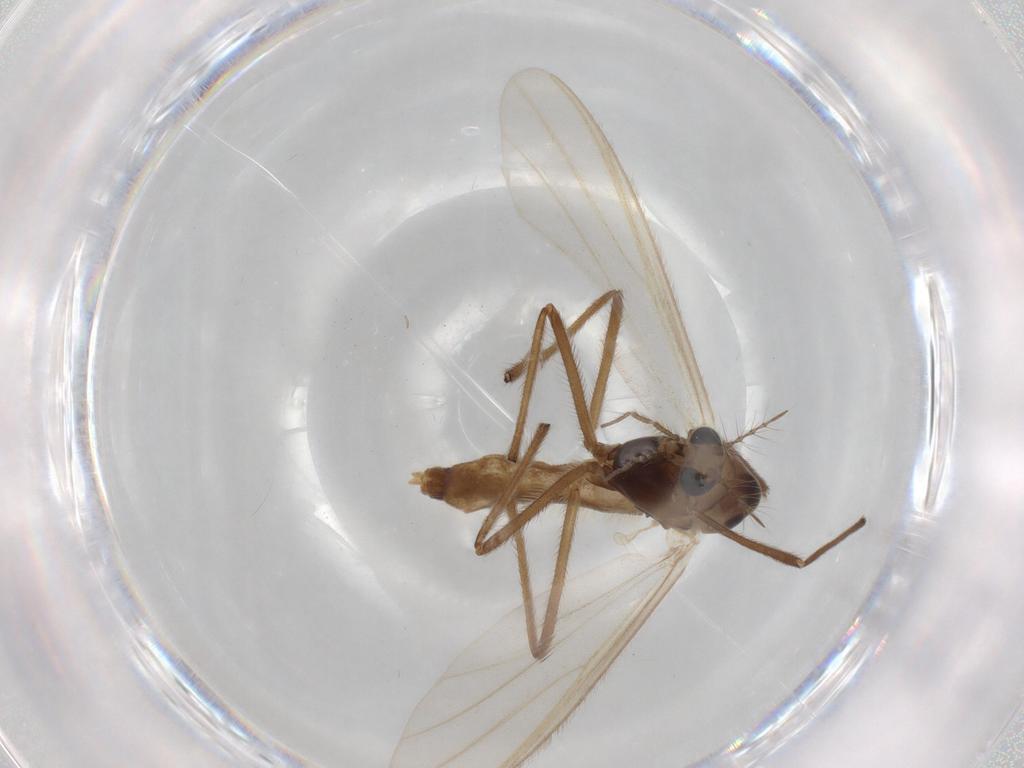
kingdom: Animalia
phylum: Arthropoda
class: Insecta
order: Diptera
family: Chironomidae
